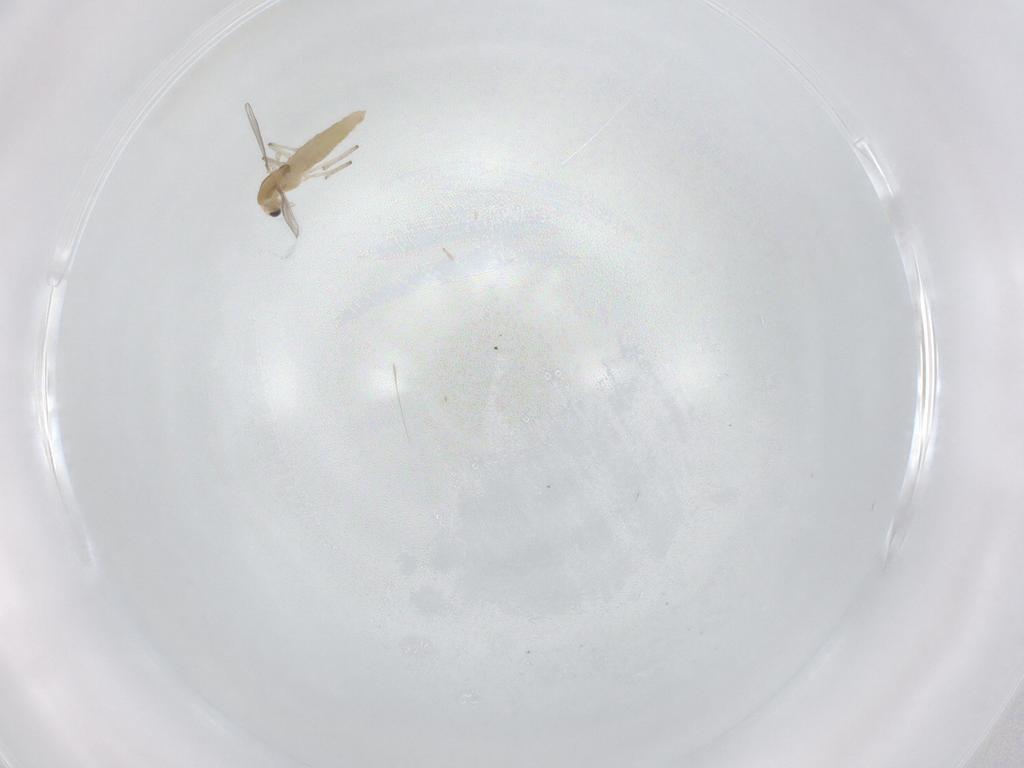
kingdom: Animalia
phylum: Arthropoda
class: Insecta
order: Diptera
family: Chironomidae
